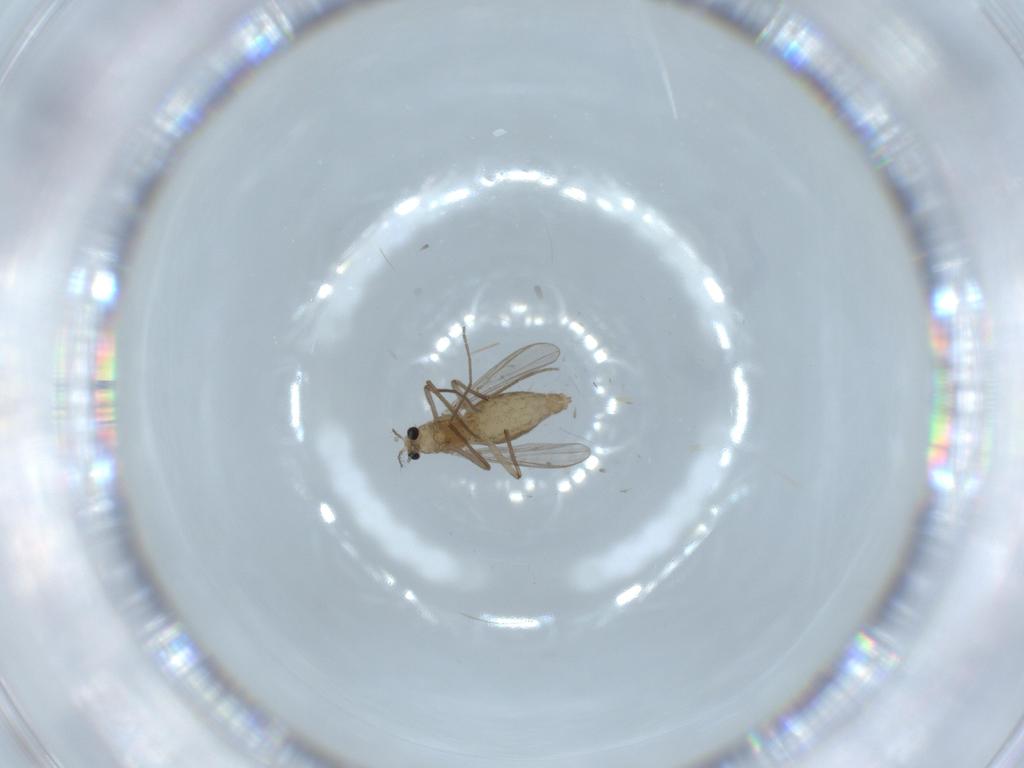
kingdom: Animalia
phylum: Arthropoda
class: Insecta
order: Diptera
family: Chironomidae
